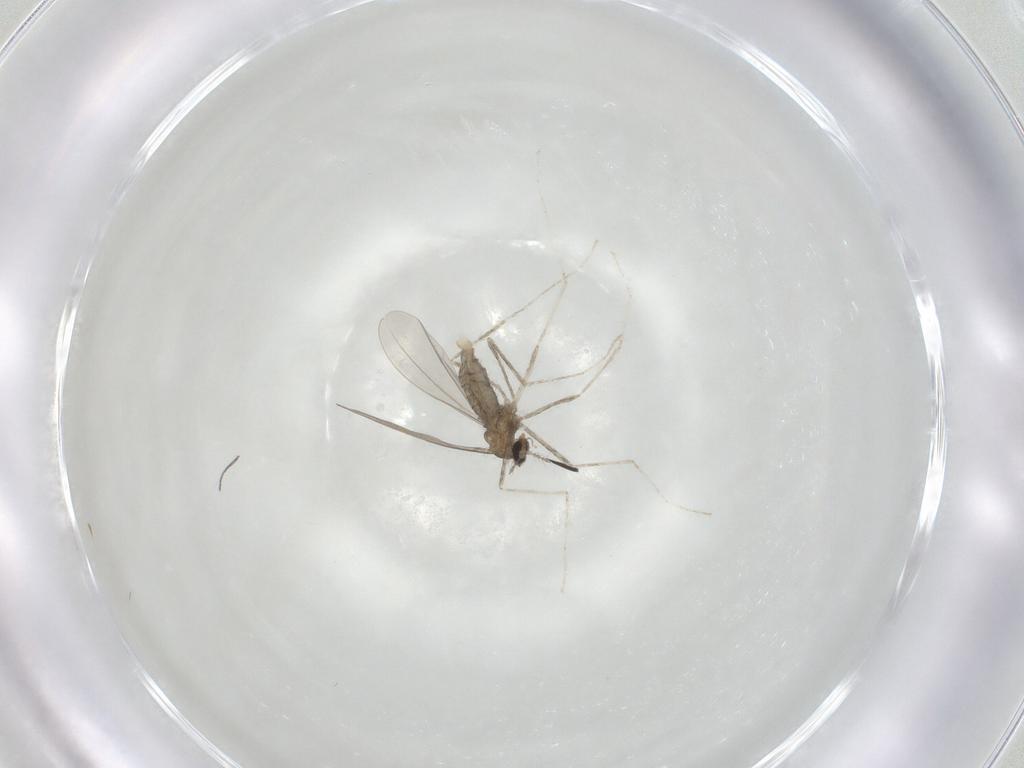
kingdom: Animalia
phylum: Arthropoda
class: Insecta
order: Diptera
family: Cecidomyiidae
